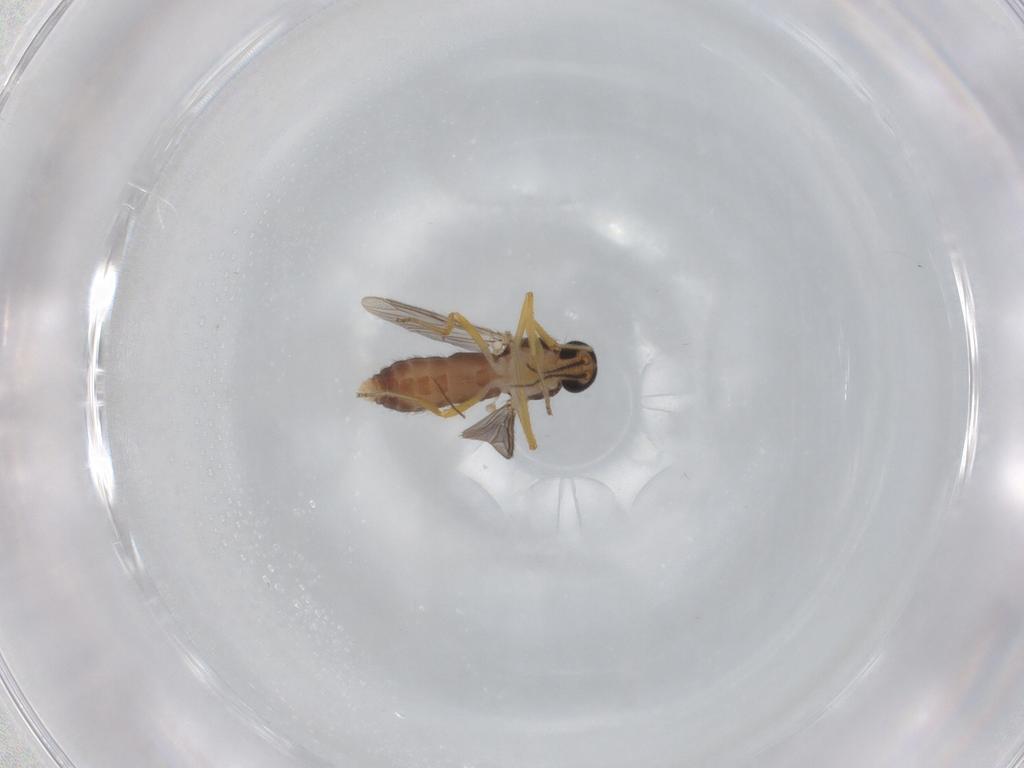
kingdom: Animalia
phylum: Arthropoda
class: Insecta
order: Diptera
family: Ceratopogonidae
